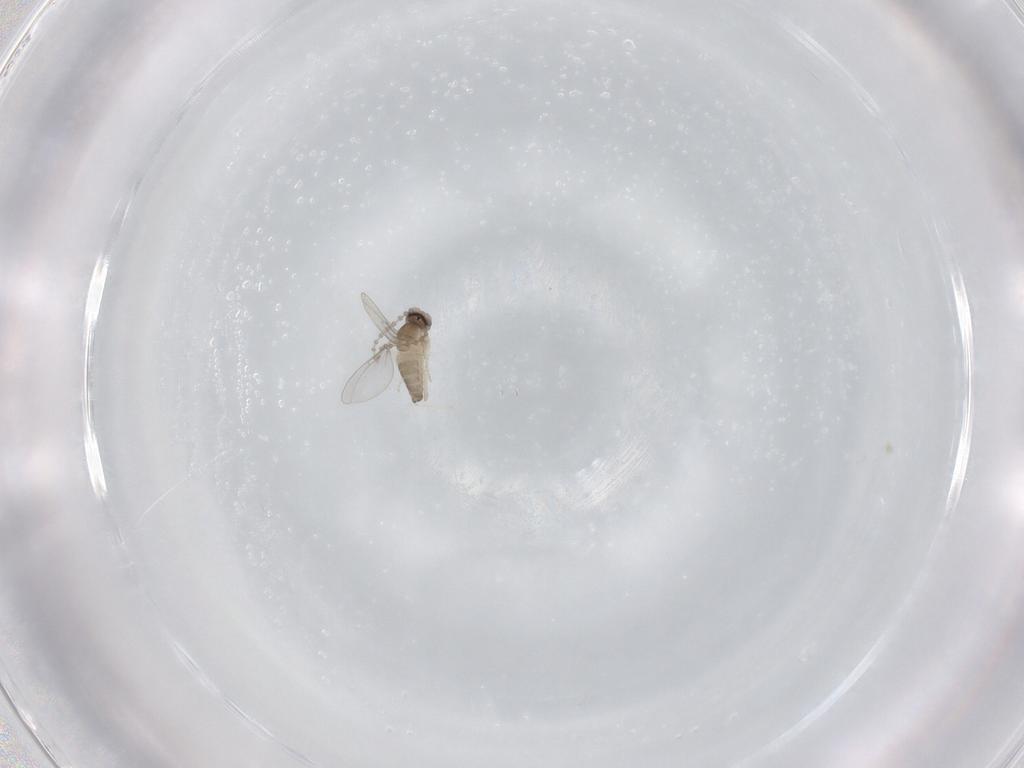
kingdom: Animalia
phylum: Arthropoda
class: Insecta
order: Diptera
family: Cecidomyiidae
